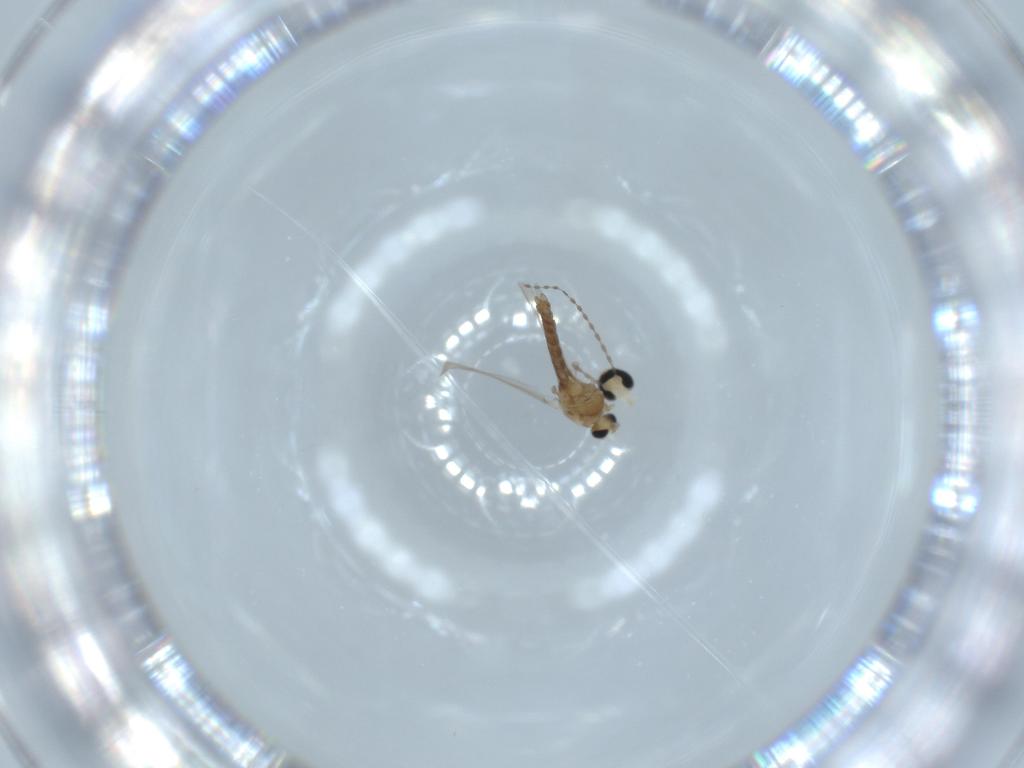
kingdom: Animalia
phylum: Arthropoda
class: Insecta
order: Diptera
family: Chironomidae
